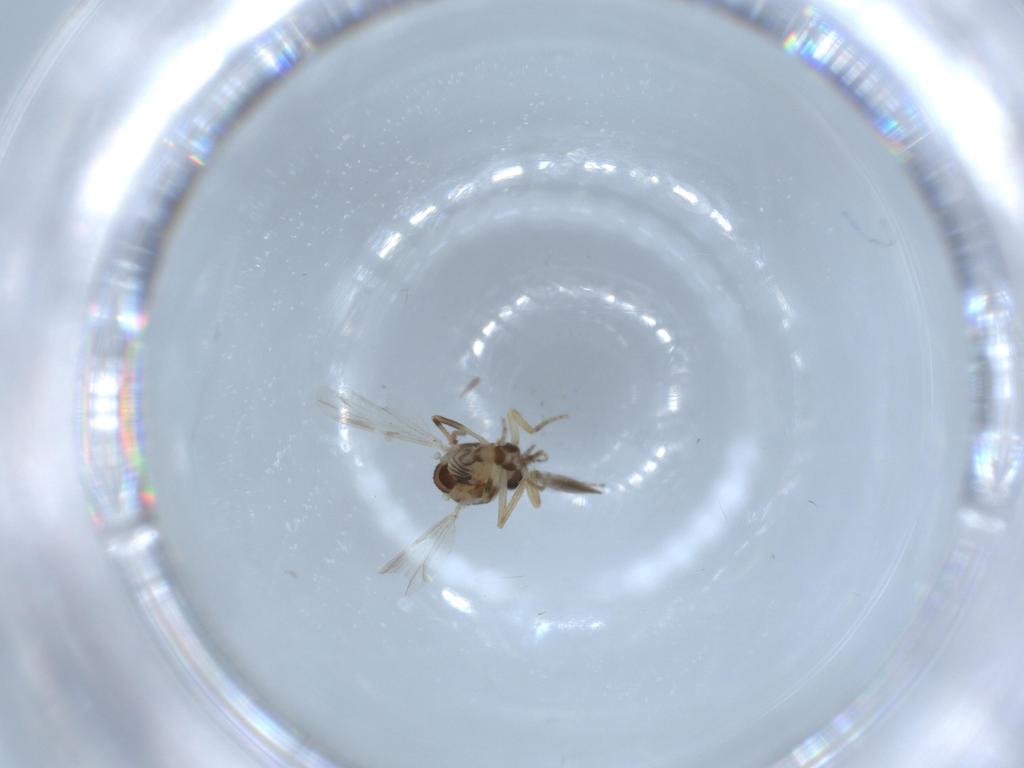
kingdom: Animalia
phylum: Arthropoda
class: Insecta
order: Diptera
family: Ceratopogonidae
